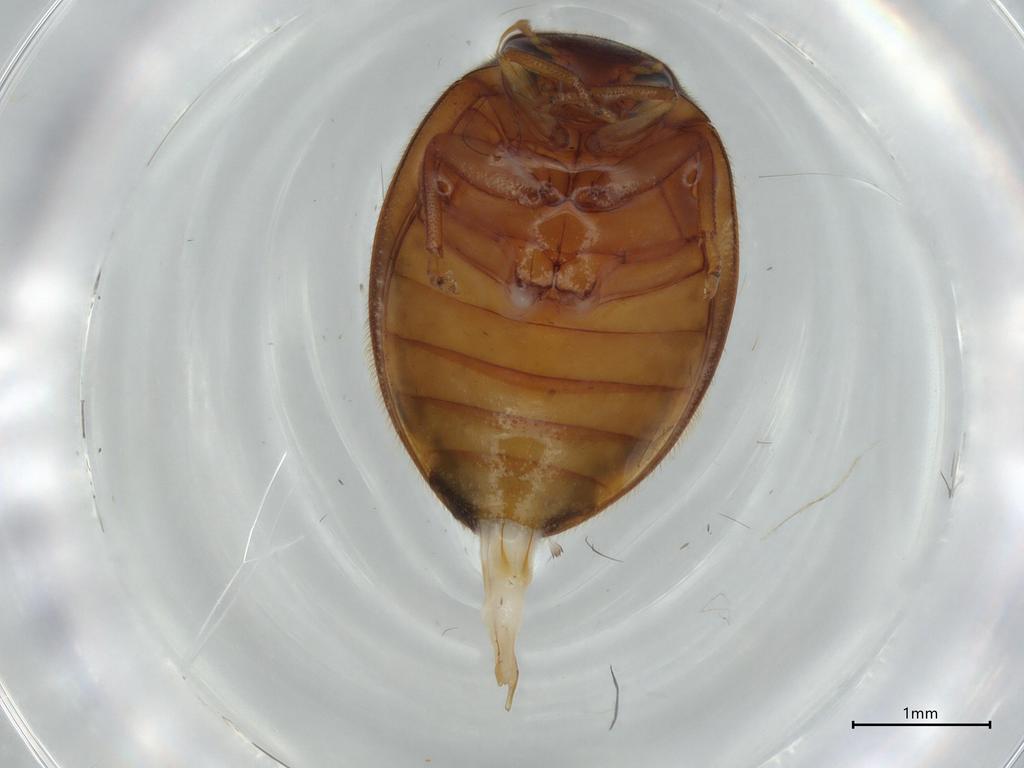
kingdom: Animalia
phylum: Arthropoda
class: Insecta
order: Coleoptera
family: Scirtidae
